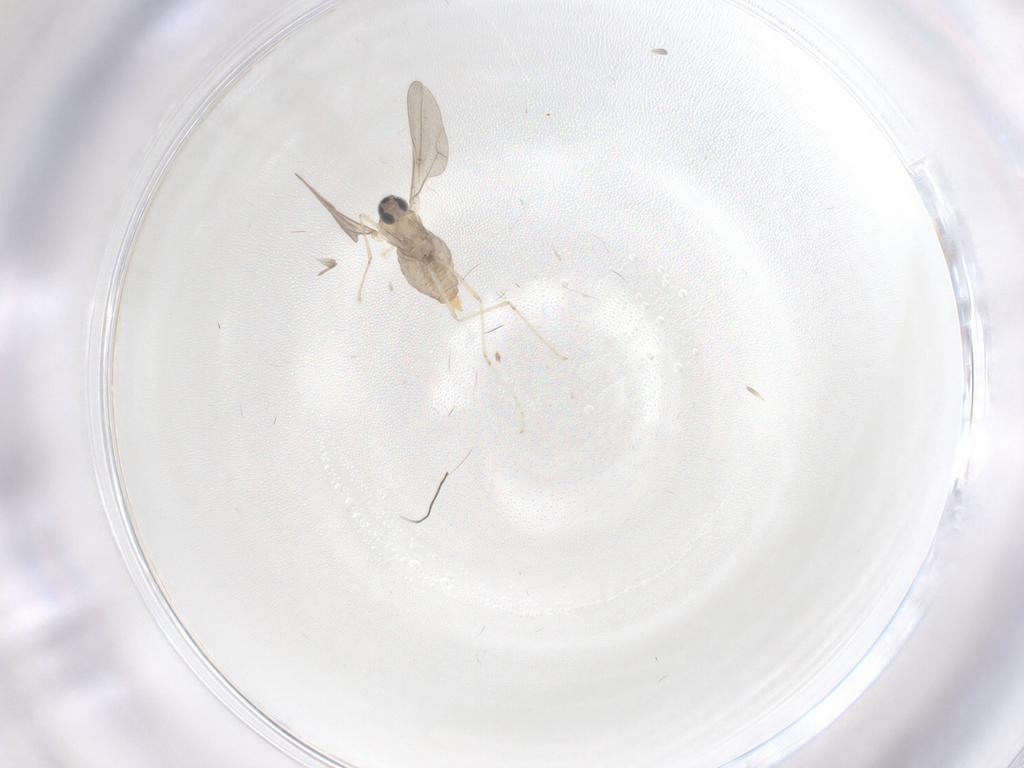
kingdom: Animalia
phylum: Arthropoda
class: Insecta
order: Diptera
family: Cecidomyiidae
